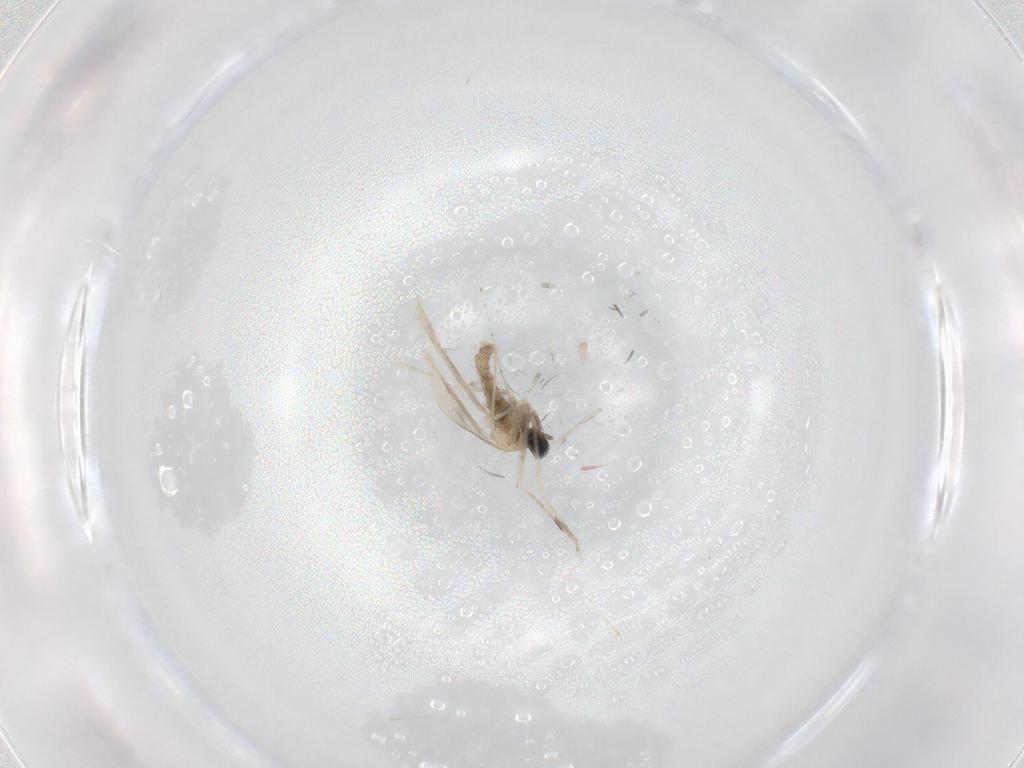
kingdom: Animalia
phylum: Arthropoda
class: Insecta
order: Diptera
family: Cecidomyiidae
